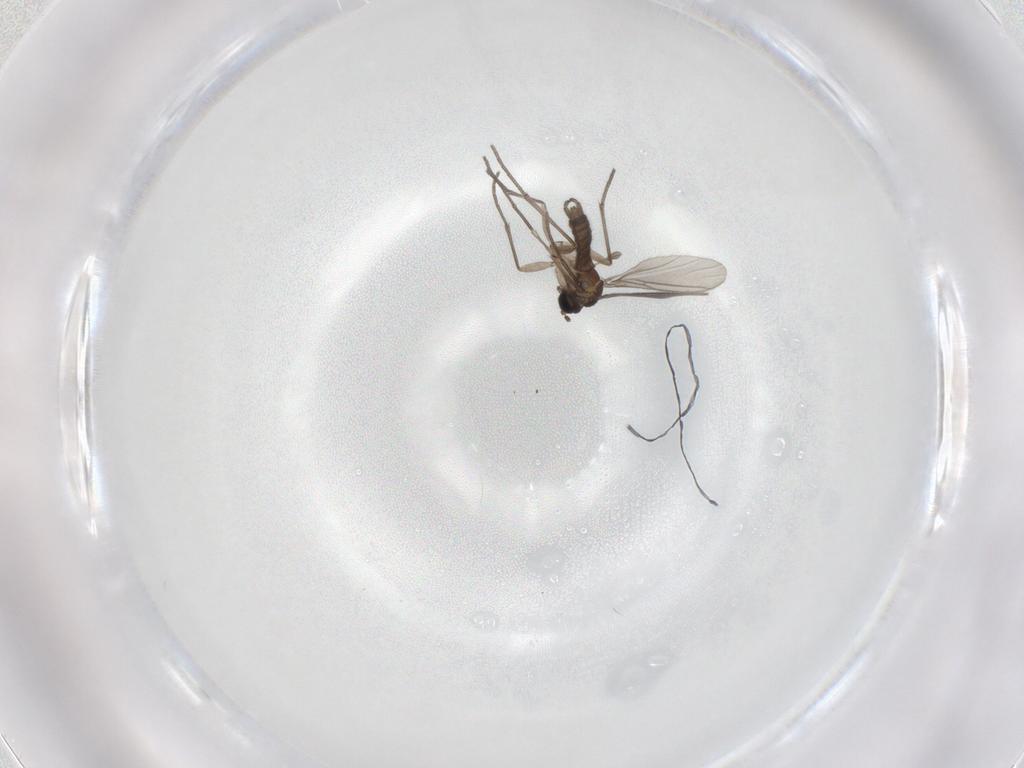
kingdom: Animalia
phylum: Arthropoda
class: Insecta
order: Diptera
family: Sciaridae
